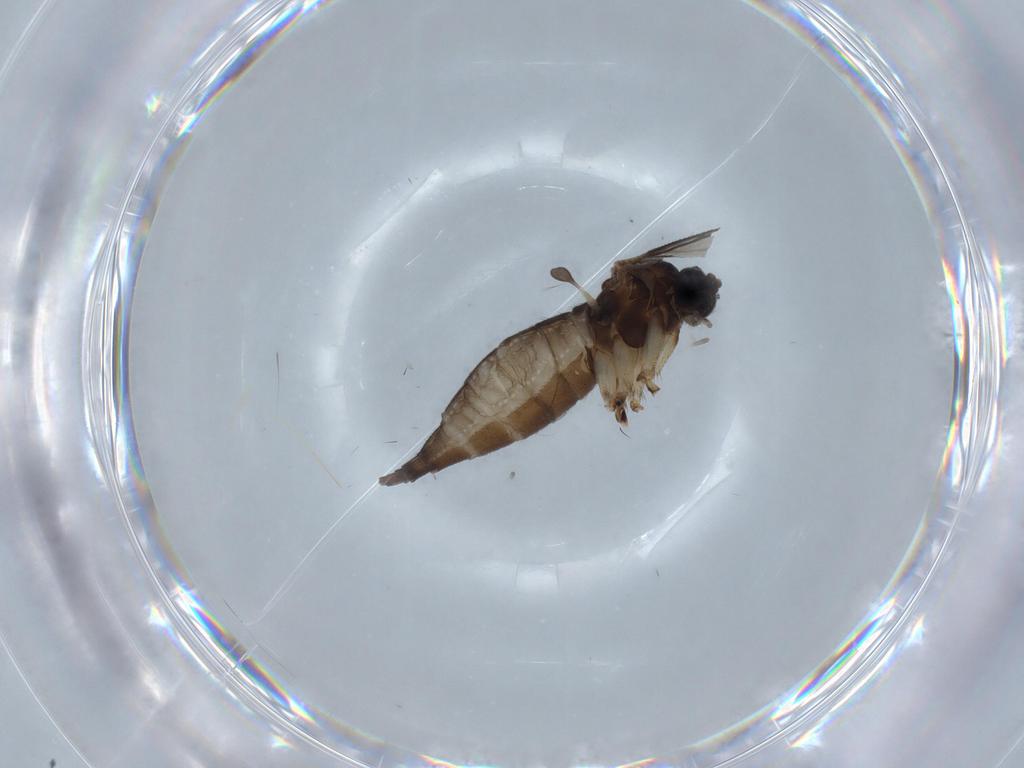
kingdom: Animalia
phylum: Arthropoda
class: Insecta
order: Diptera
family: Sciaridae
